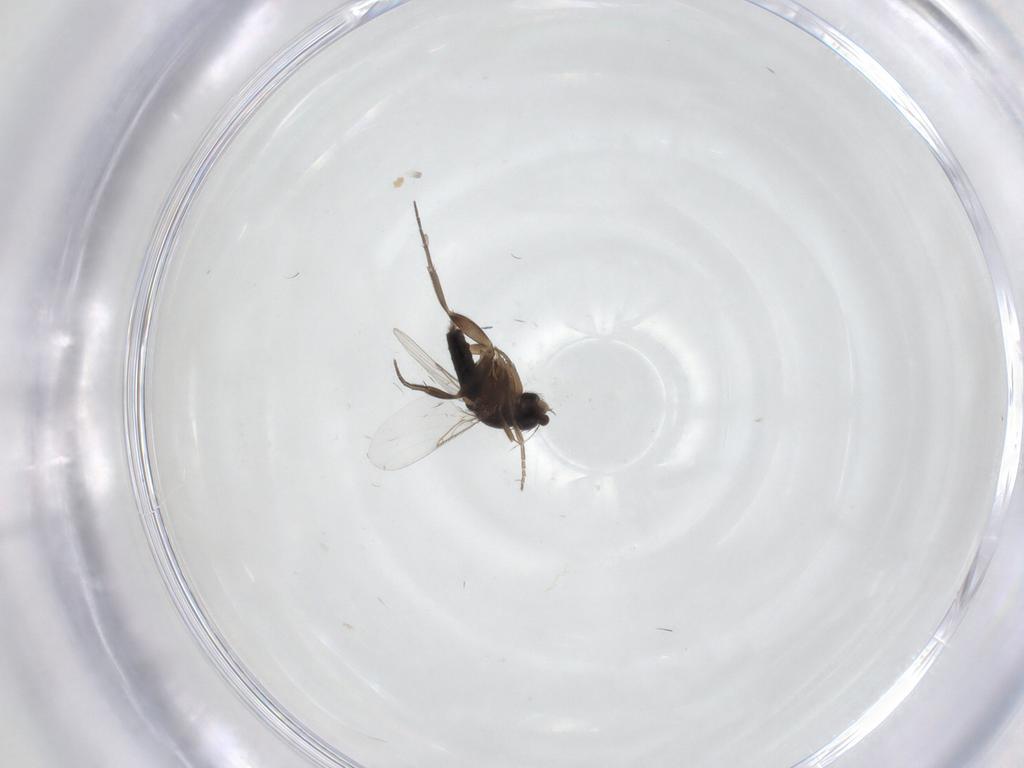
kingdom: Animalia
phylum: Arthropoda
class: Insecta
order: Diptera
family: Phoridae
